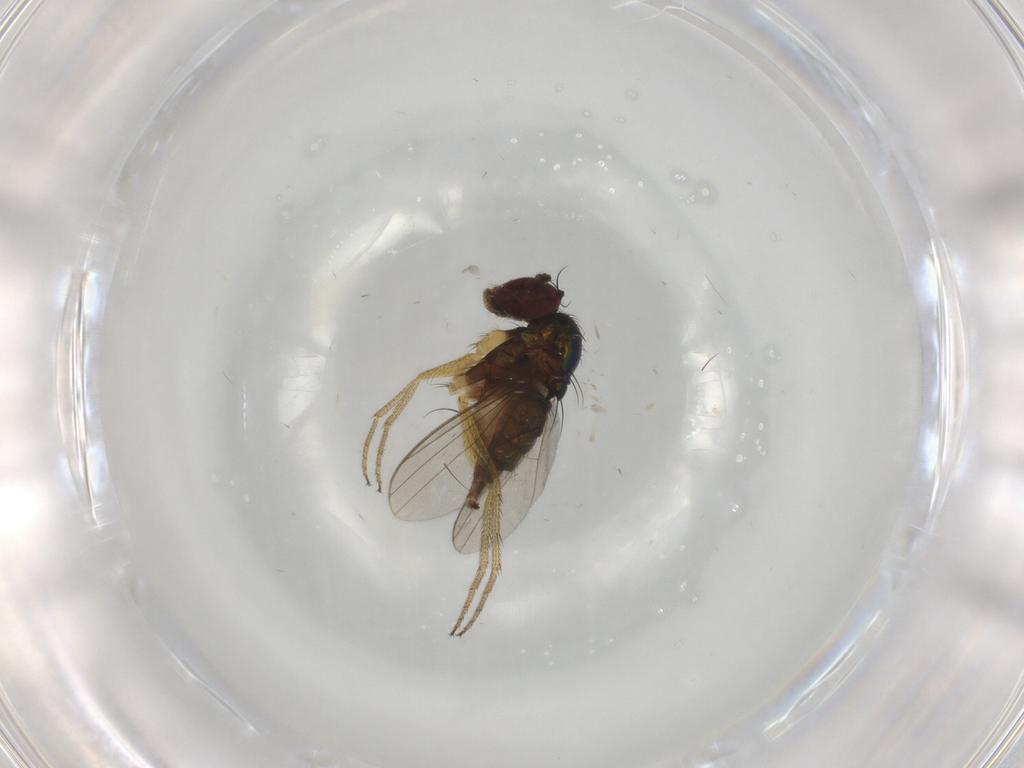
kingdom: Animalia
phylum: Arthropoda
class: Insecta
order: Diptera
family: Dolichopodidae
